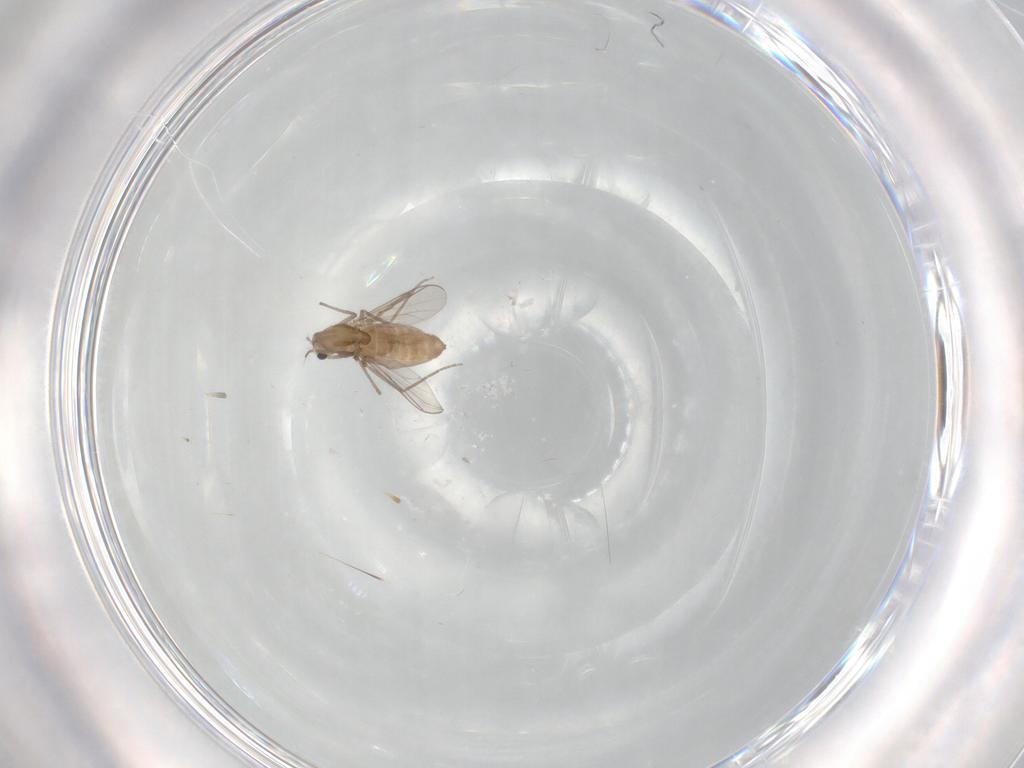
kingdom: Animalia
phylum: Arthropoda
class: Insecta
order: Diptera
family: Chironomidae
